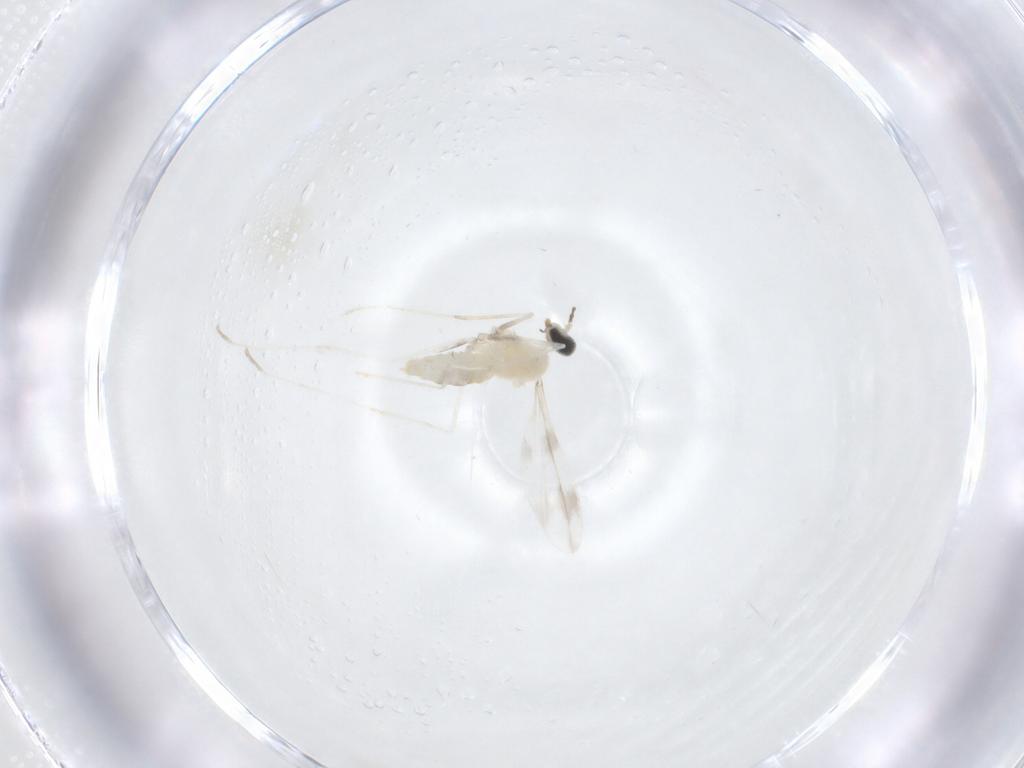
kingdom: Animalia
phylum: Arthropoda
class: Insecta
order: Diptera
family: Cecidomyiidae
